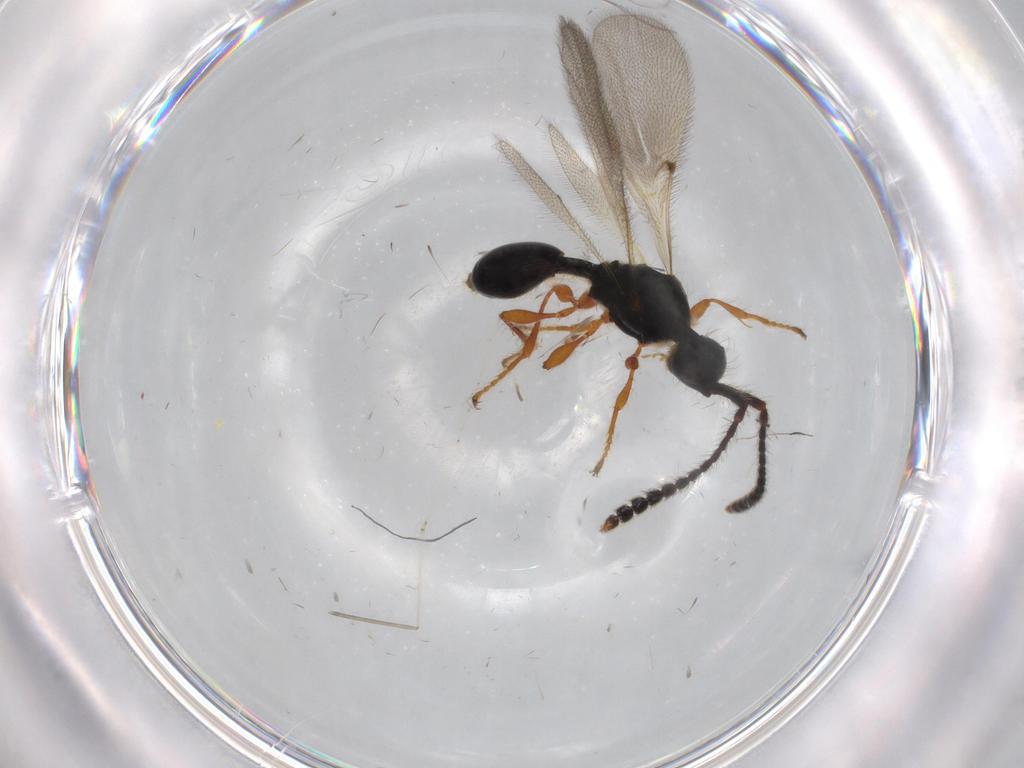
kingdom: Animalia
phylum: Arthropoda
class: Insecta
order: Hymenoptera
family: Diapriidae
